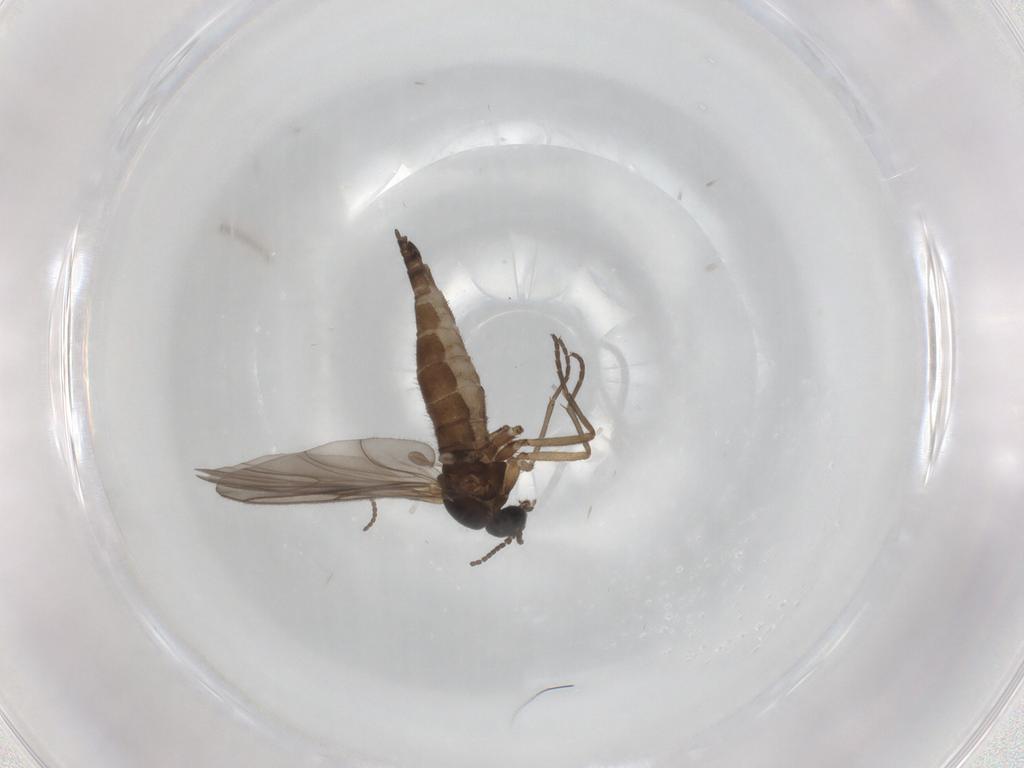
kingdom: Animalia
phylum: Arthropoda
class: Insecta
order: Diptera
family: Sciaridae
